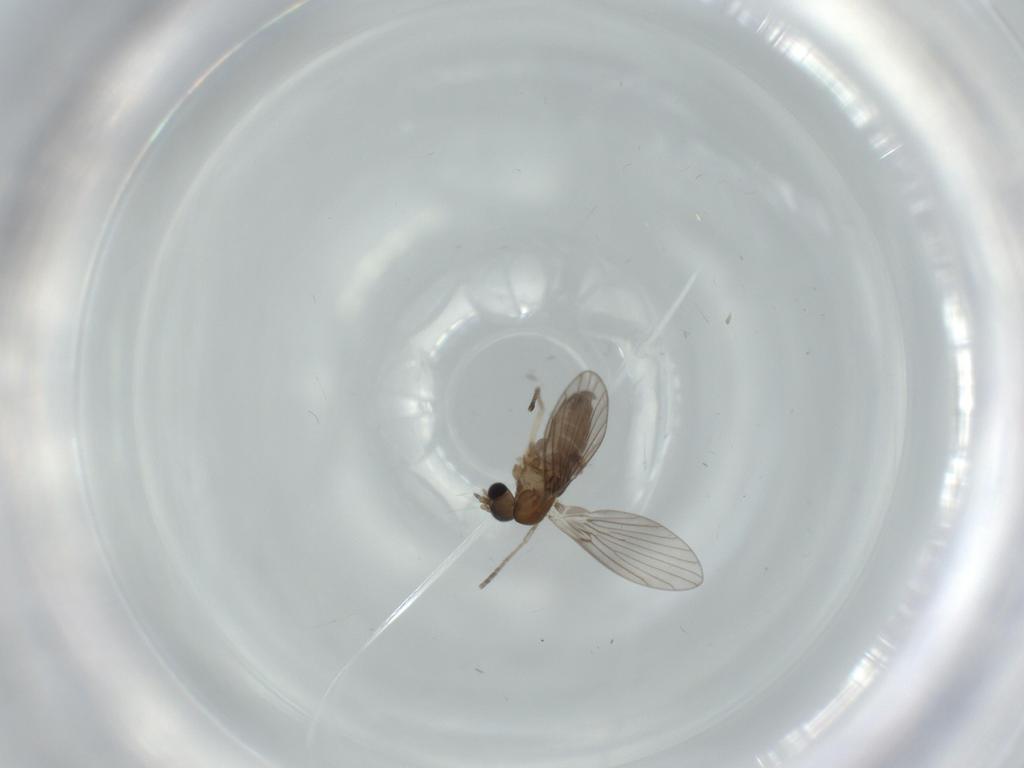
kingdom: Animalia
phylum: Arthropoda
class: Insecta
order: Diptera
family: Psychodidae
